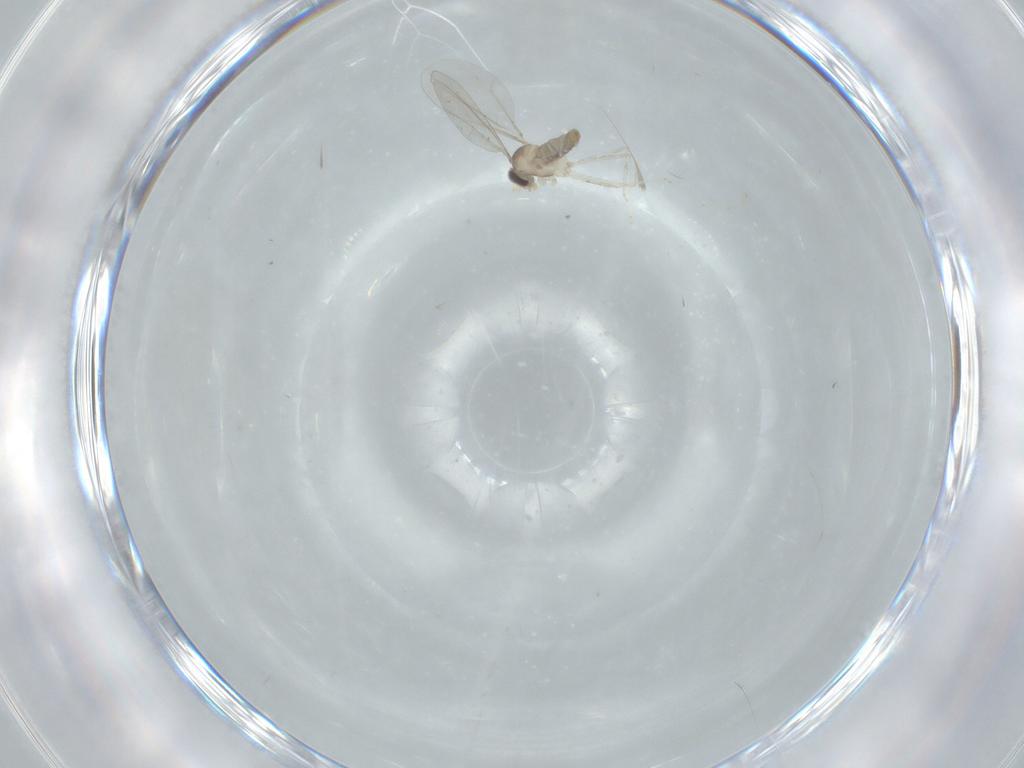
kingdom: Animalia
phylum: Arthropoda
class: Insecta
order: Diptera
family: Cecidomyiidae
